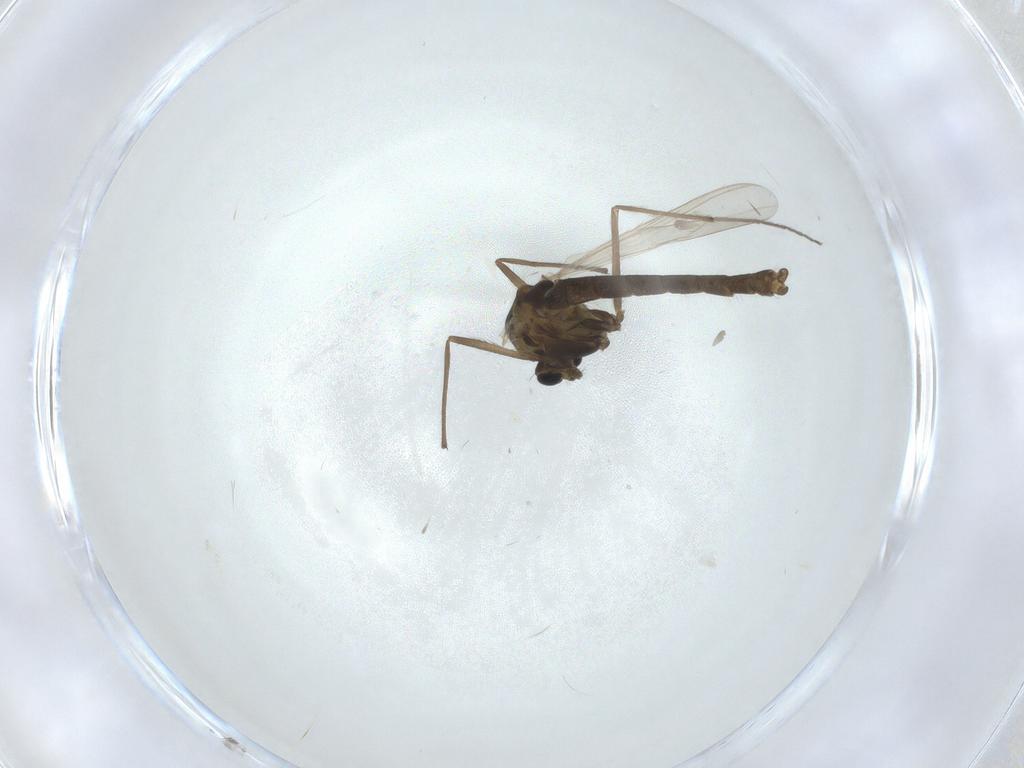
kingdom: Animalia
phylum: Arthropoda
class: Insecta
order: Diptera
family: Chironomidae
